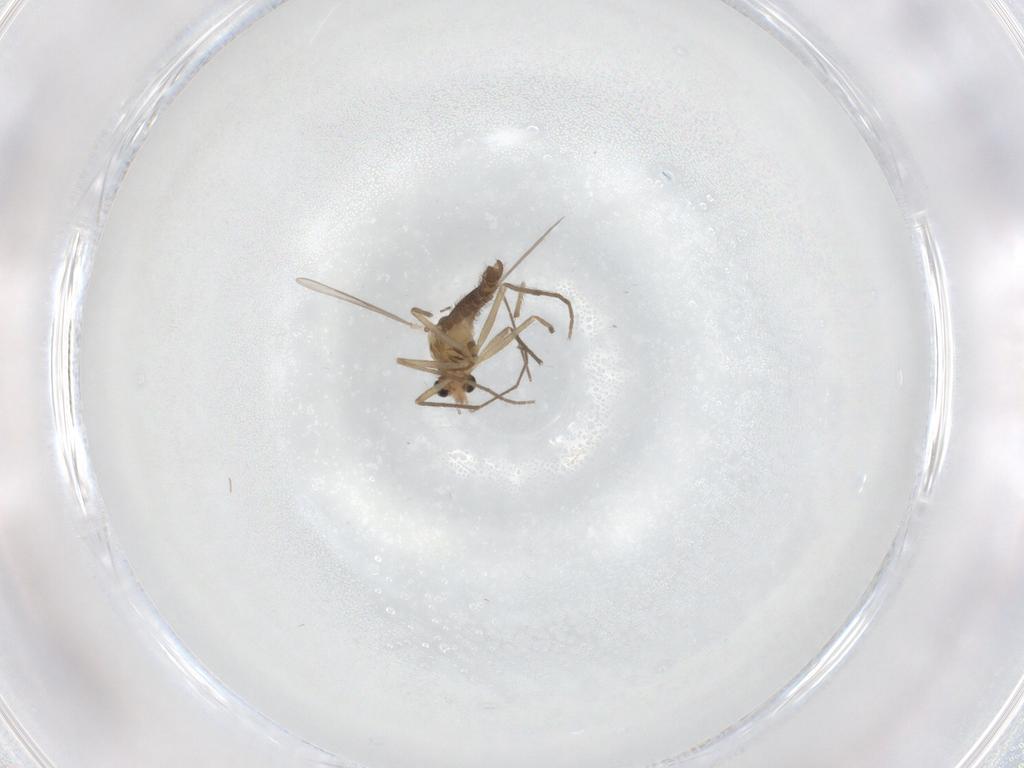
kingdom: Animalia
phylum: Arthropoda
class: Insecta
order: Diptera
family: Chironomidae
